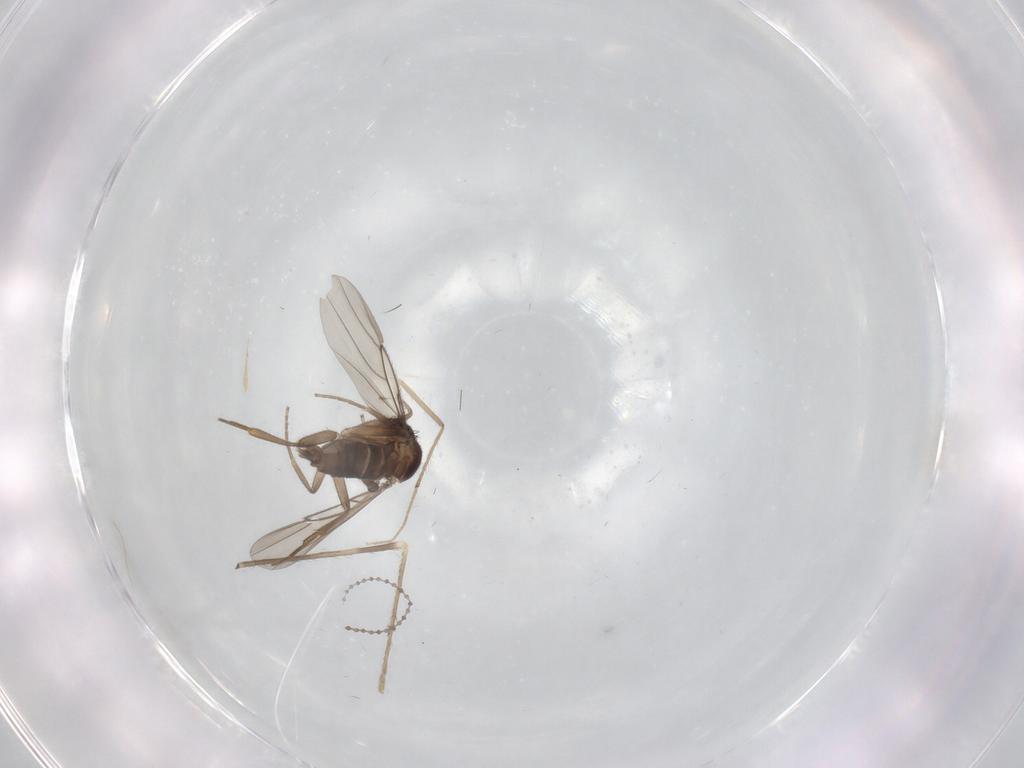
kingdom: Animalia
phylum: Arthropoda
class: Insecta
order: Diptera
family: Phoridae
